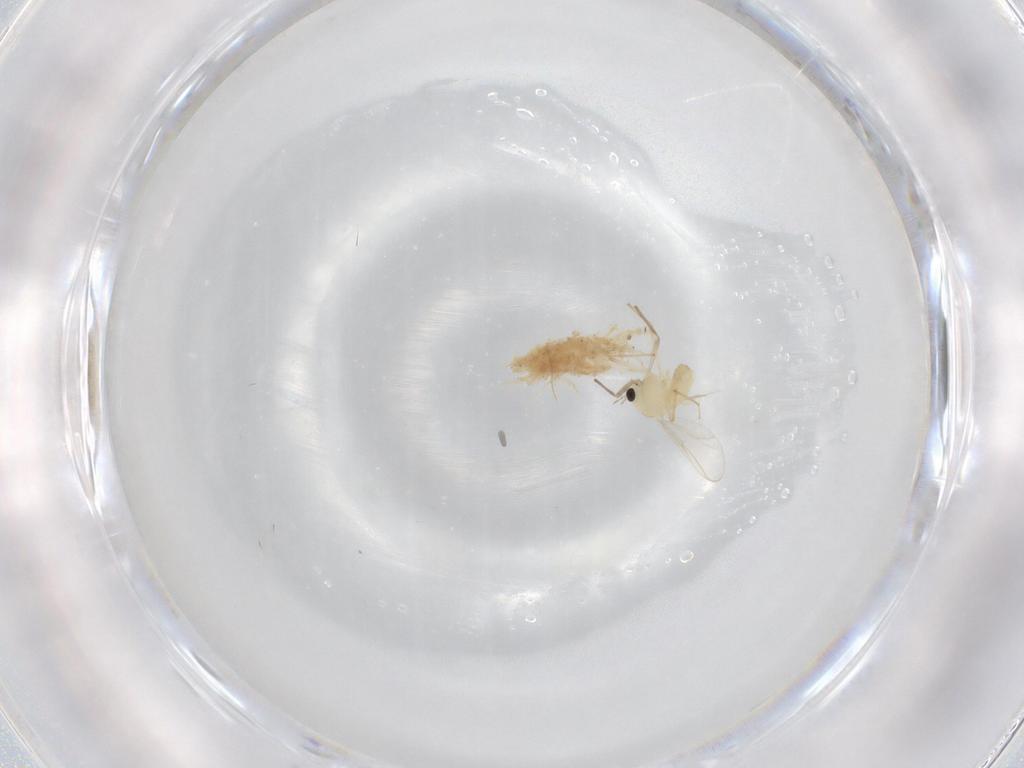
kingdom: Animalia
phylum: Arthropoda
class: Insecta
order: Diptera
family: Chironomidae
